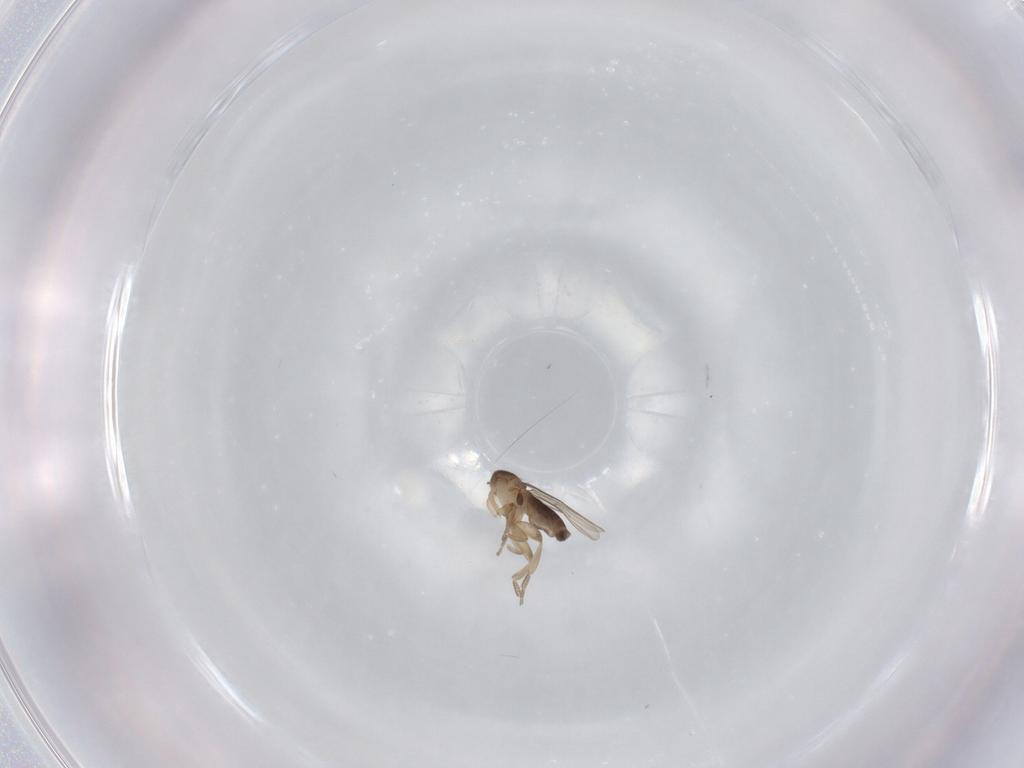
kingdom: Animalia
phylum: Arthropoda
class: Insecta
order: Diptera
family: Phoridae
